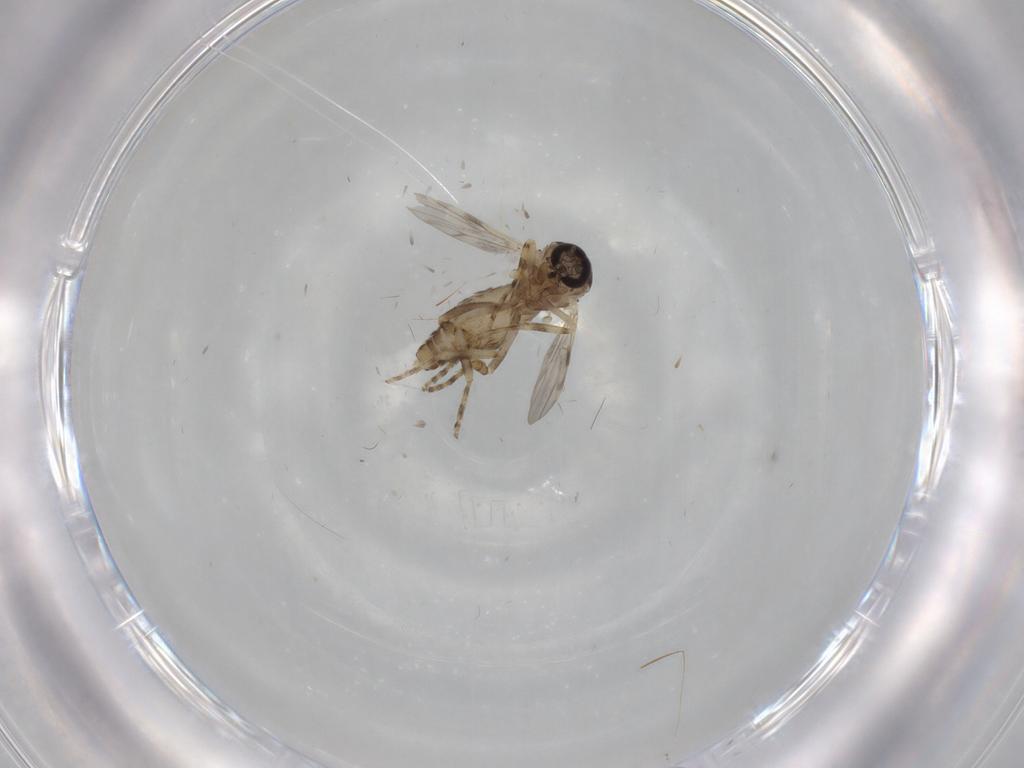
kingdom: Animalia
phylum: Arthropoda
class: Insecta
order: Diptera
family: Ceratopogonidae
